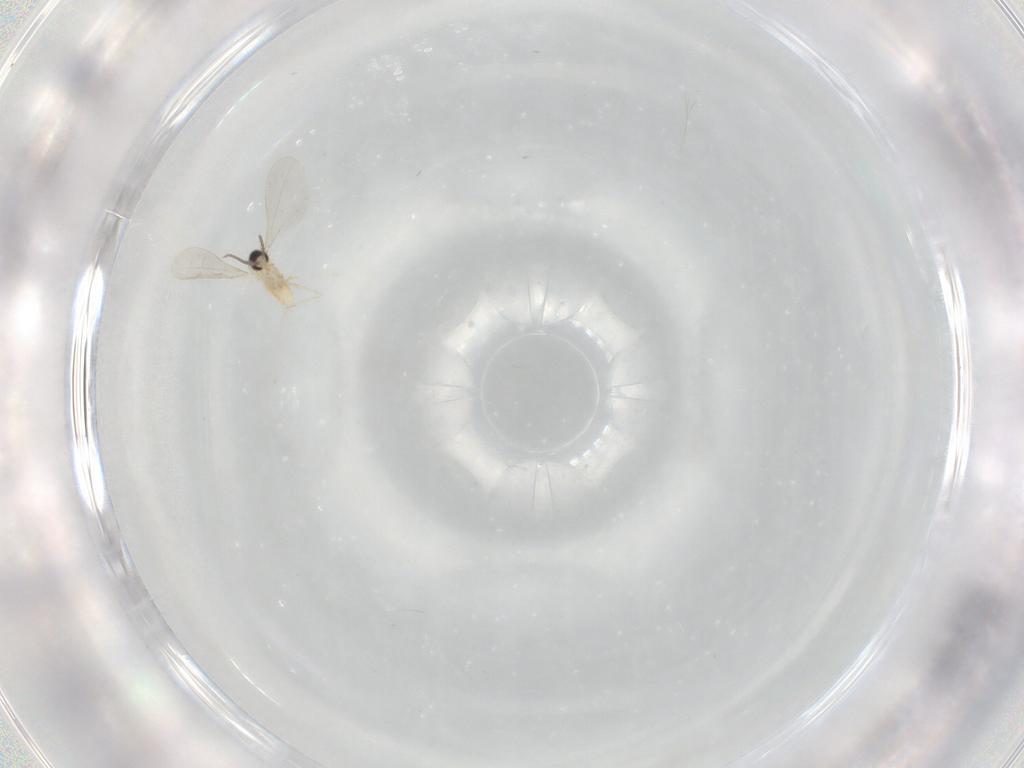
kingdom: Animalia
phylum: Arthropoda
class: Insecta
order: Diptera
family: Cecidomyiidae
